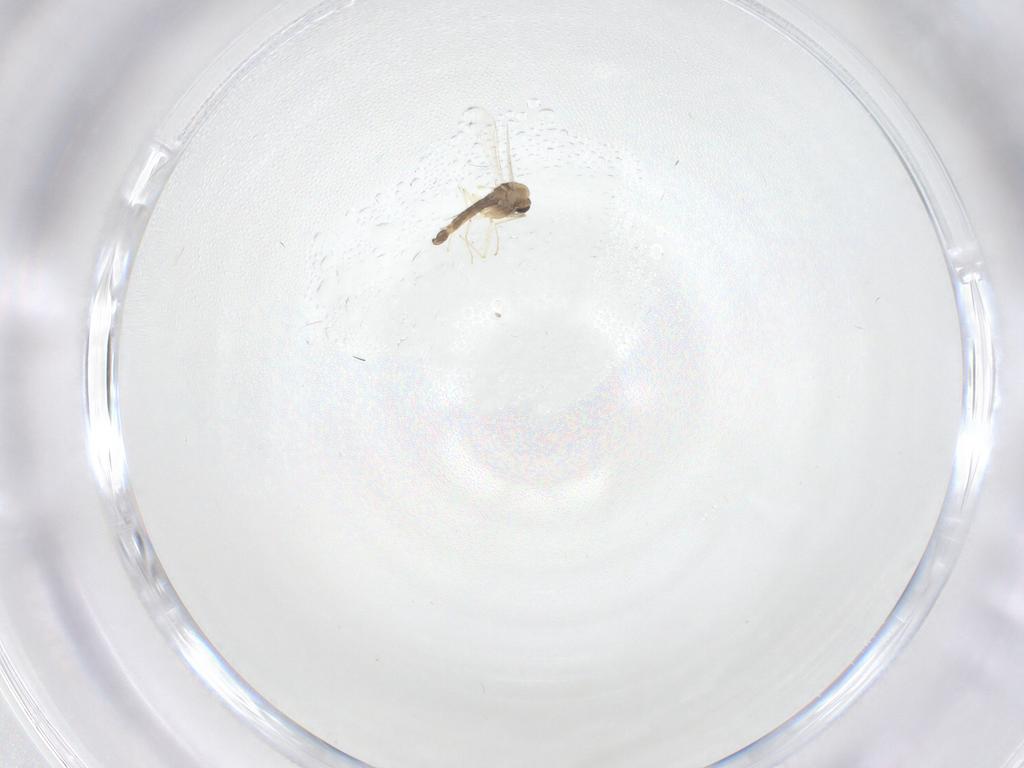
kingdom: Animalia
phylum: Arthropoda
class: Insecta
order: Diptera
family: Chironomidae
